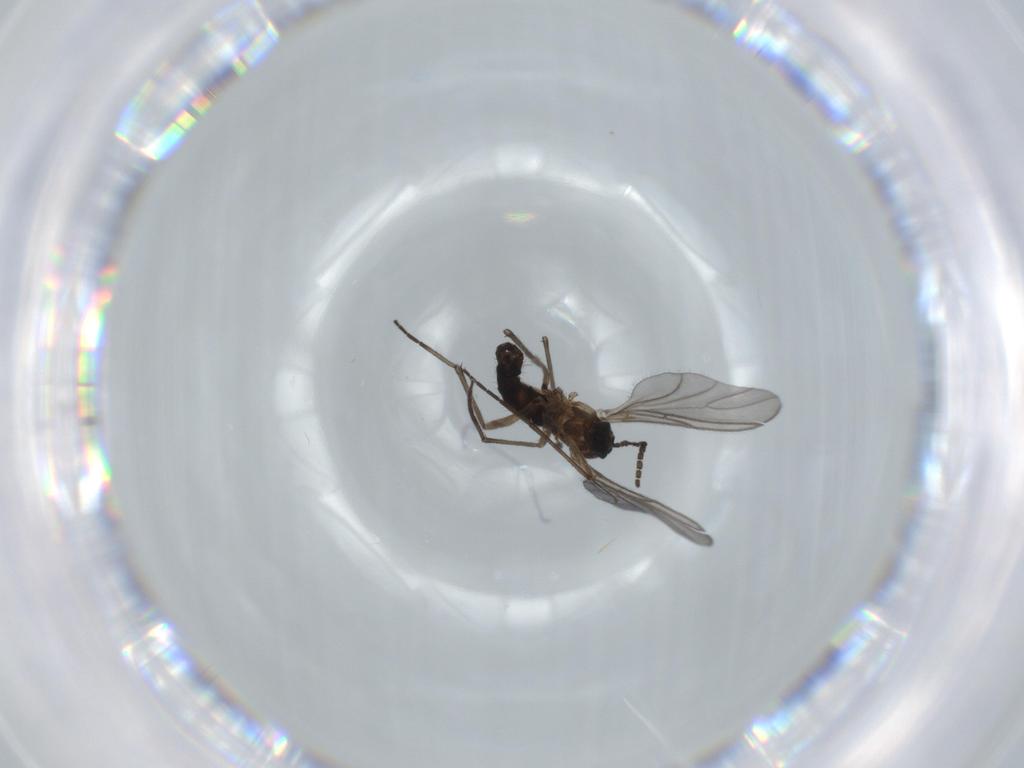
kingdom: Animalia
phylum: Arthropoda
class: Insecta
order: Diptera
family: Sciaridae
